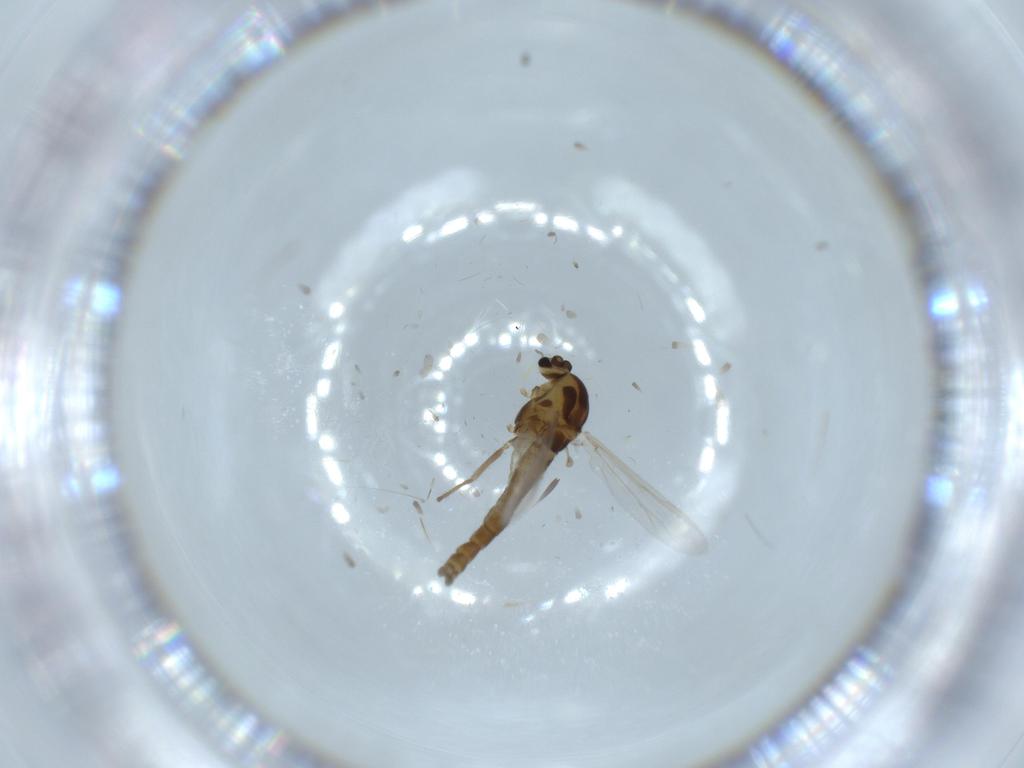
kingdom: Animalia
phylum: Arthropoda
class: Insecta
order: Diptera
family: Chironomidae
